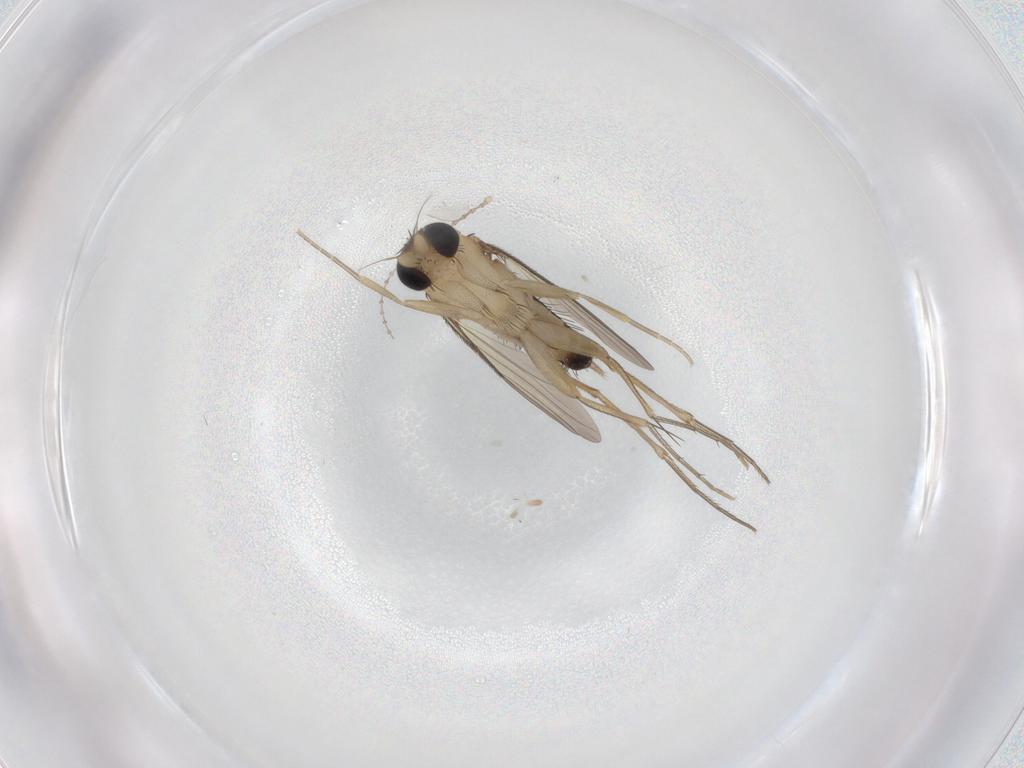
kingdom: Animalia
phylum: Arthropoda
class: Insecta
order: Diptera
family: Phoridae
